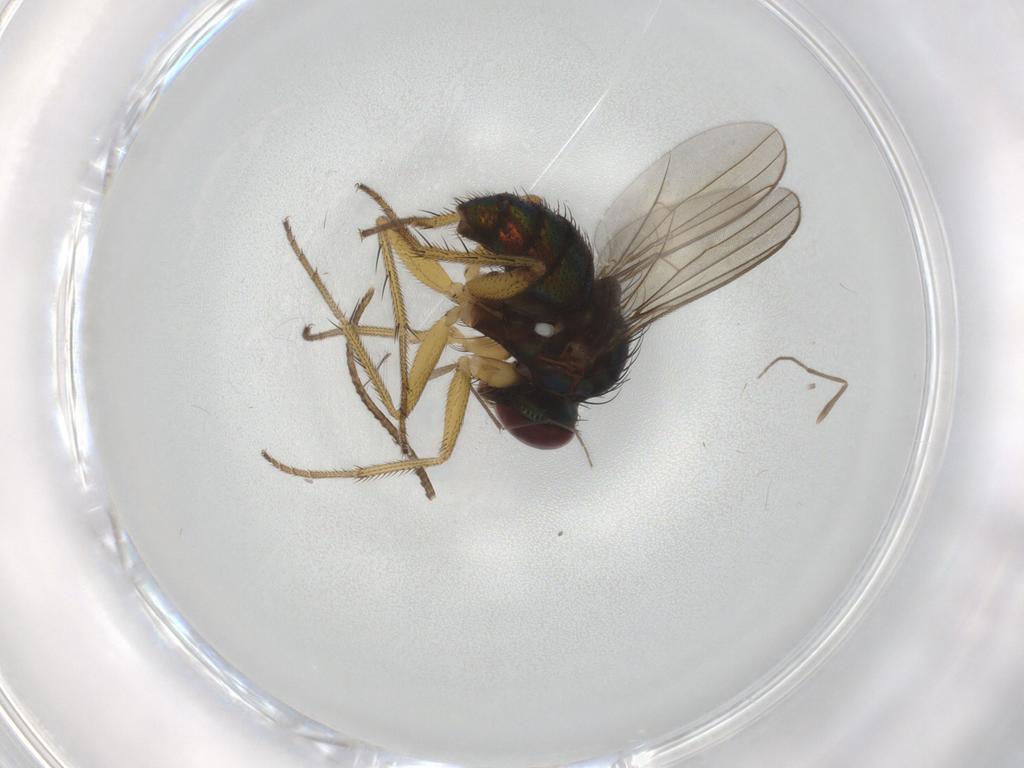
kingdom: Animalia
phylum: Arthropoda
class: Insecta
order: Diptera
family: Dolichopodidae
